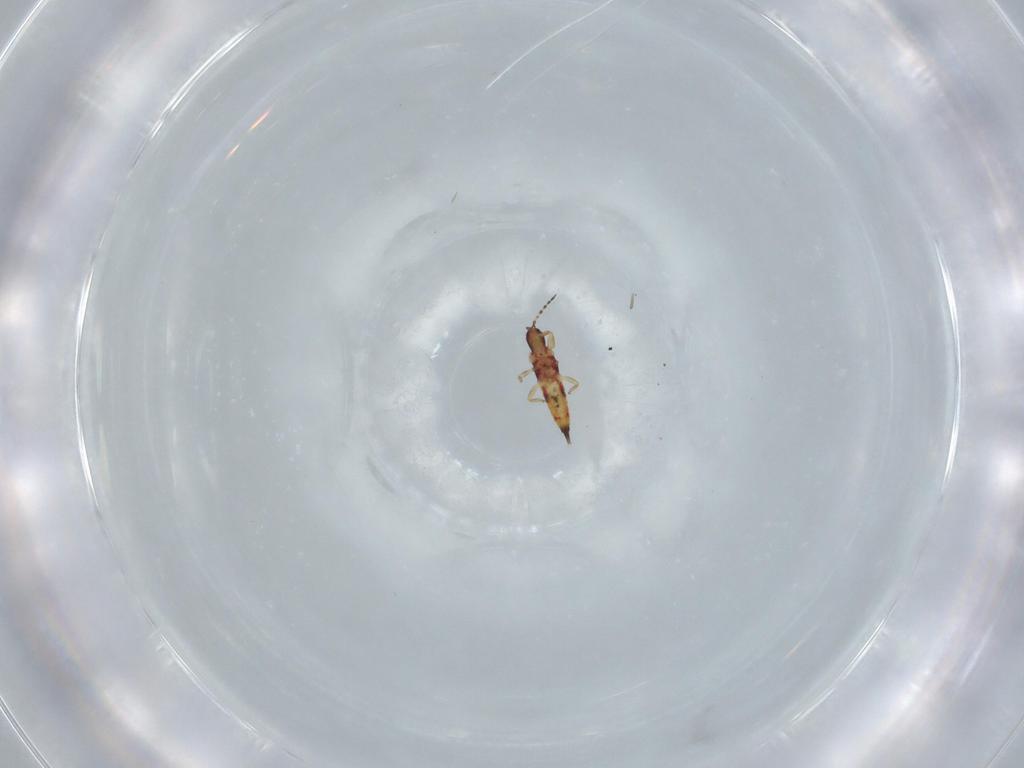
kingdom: Animalia
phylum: Arthropoda
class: Insecta
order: Thysanoptera
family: Phlaeothripidae
